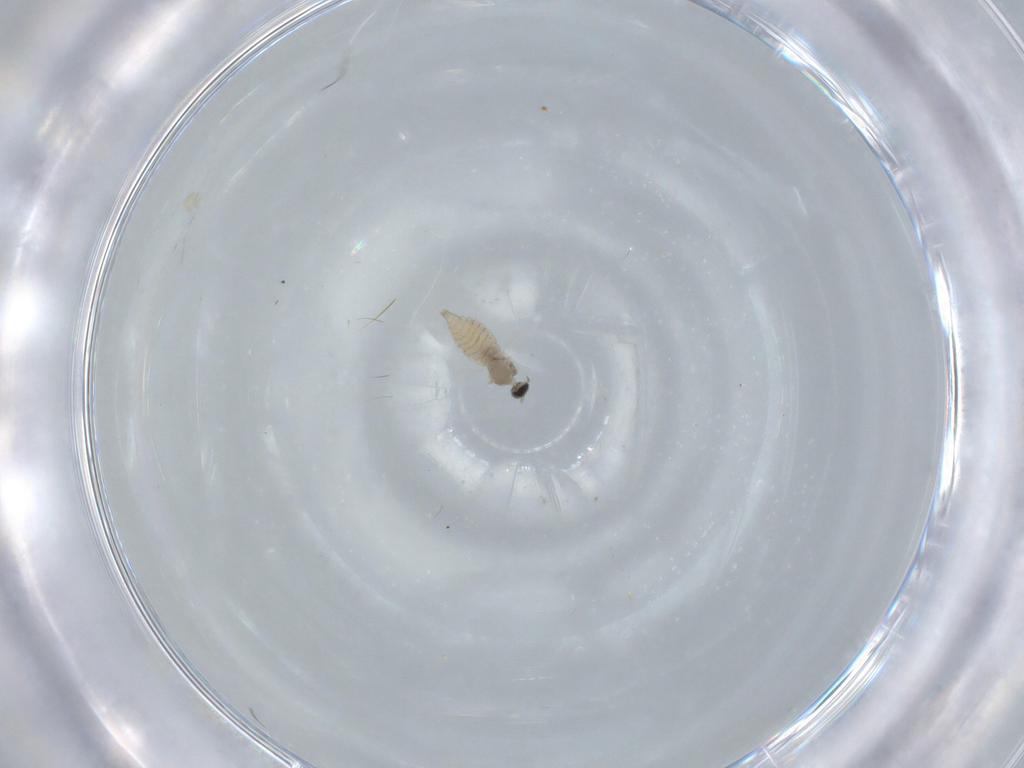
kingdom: Animalia
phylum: Arthropoda
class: Insecta
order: Diptera
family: Cecidomyiidae
